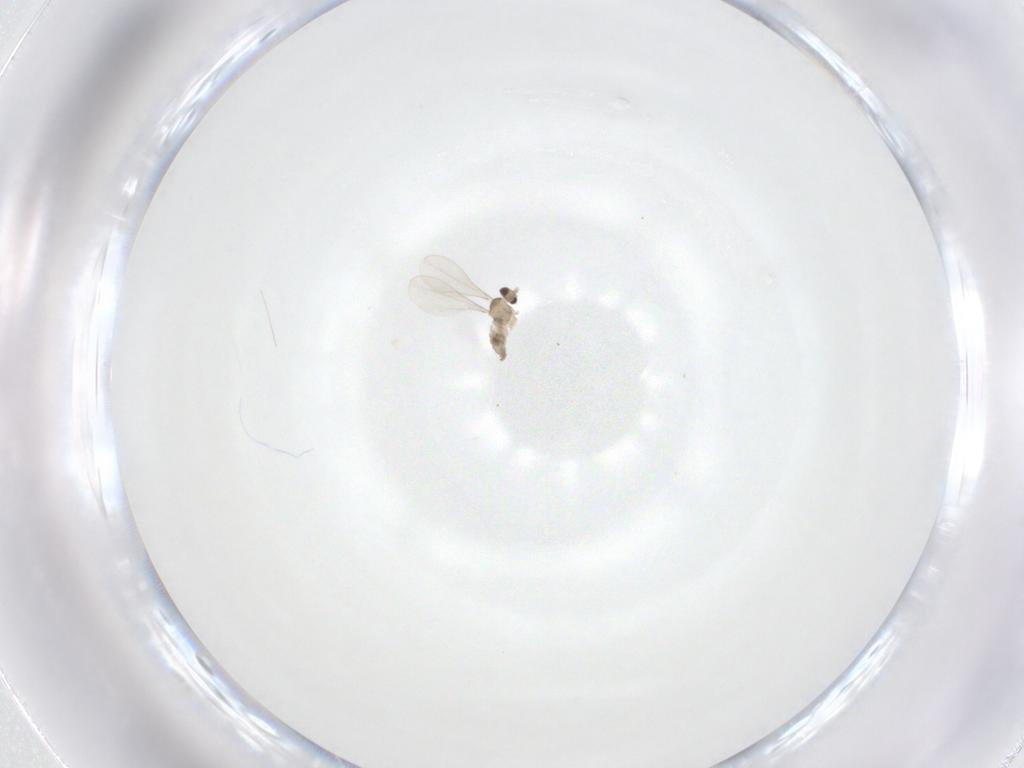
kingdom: Animalia
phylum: Arthropoda
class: Insecta
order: Diptera
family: Cecidomyiidae
